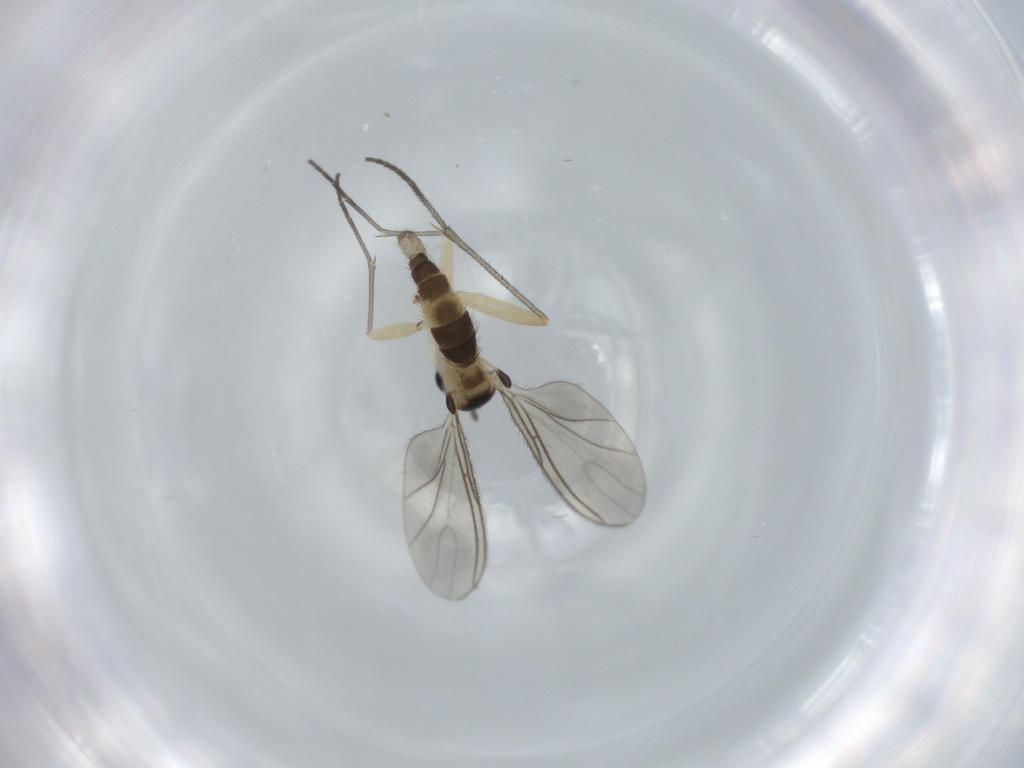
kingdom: Animalia
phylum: Arthropoda
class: Insecta
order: Diptera
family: Sciaridae
